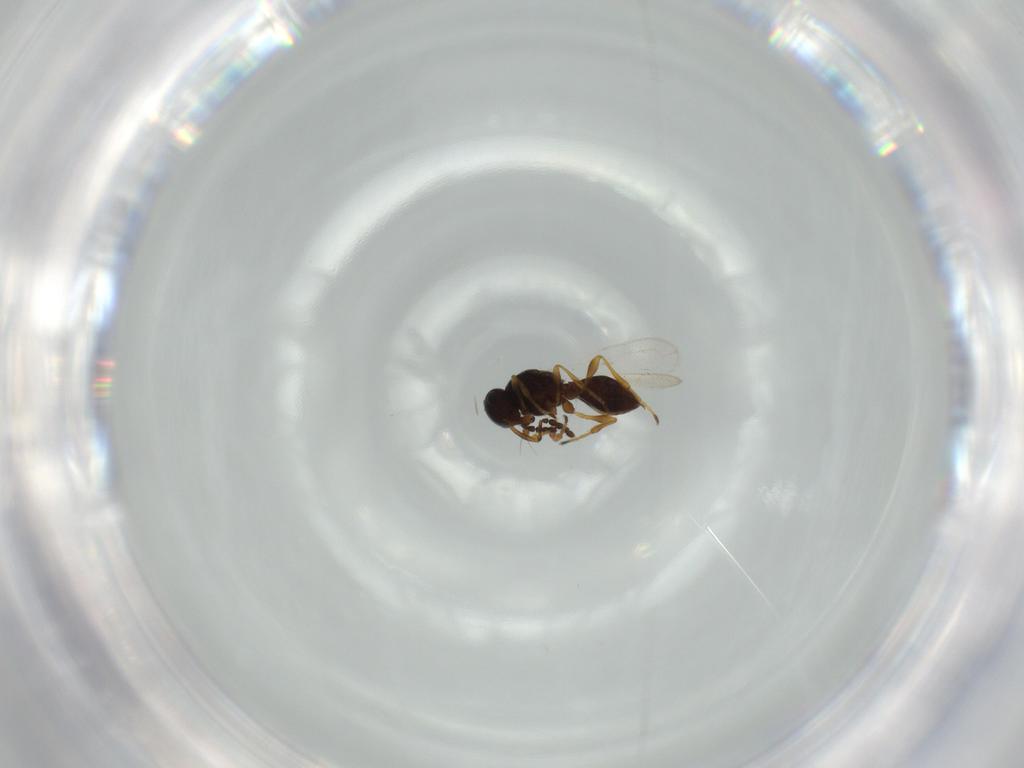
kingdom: Animalia
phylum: Arthropoda
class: Insecta
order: Hymenoptera
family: Platygastridae
